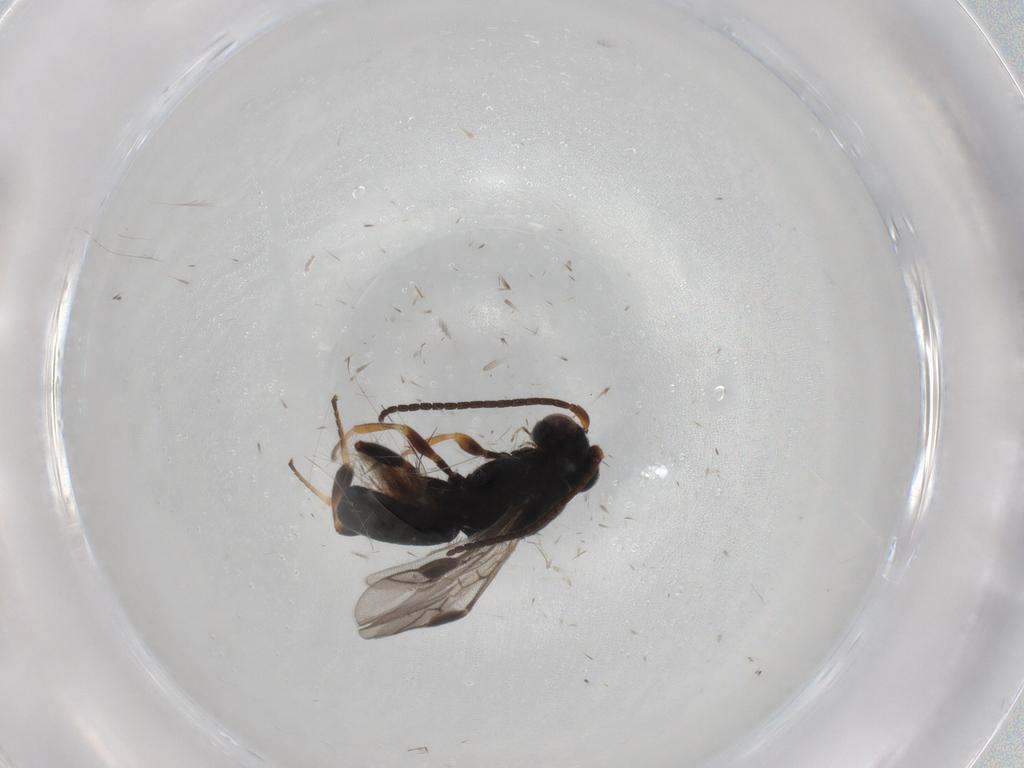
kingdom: Animalia
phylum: Arthropoda
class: Insecta
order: Hymenoptera
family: Braconidae
